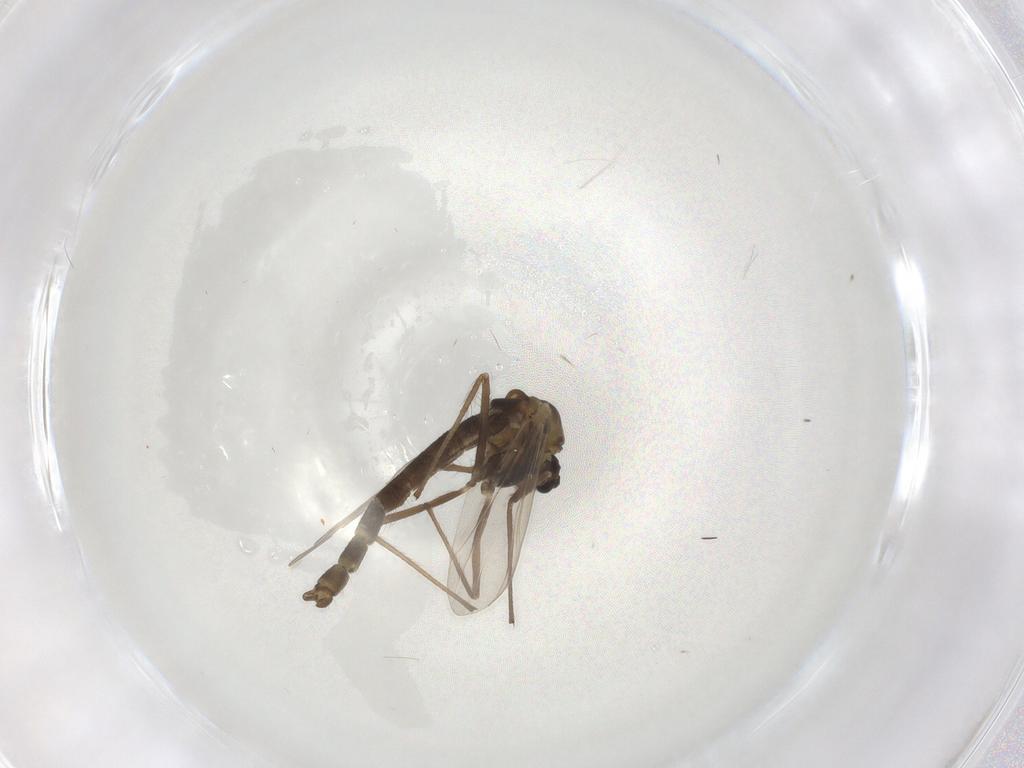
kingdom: Animalia
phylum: Arthropoda
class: Insecta
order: Diptera
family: Chironomidae
